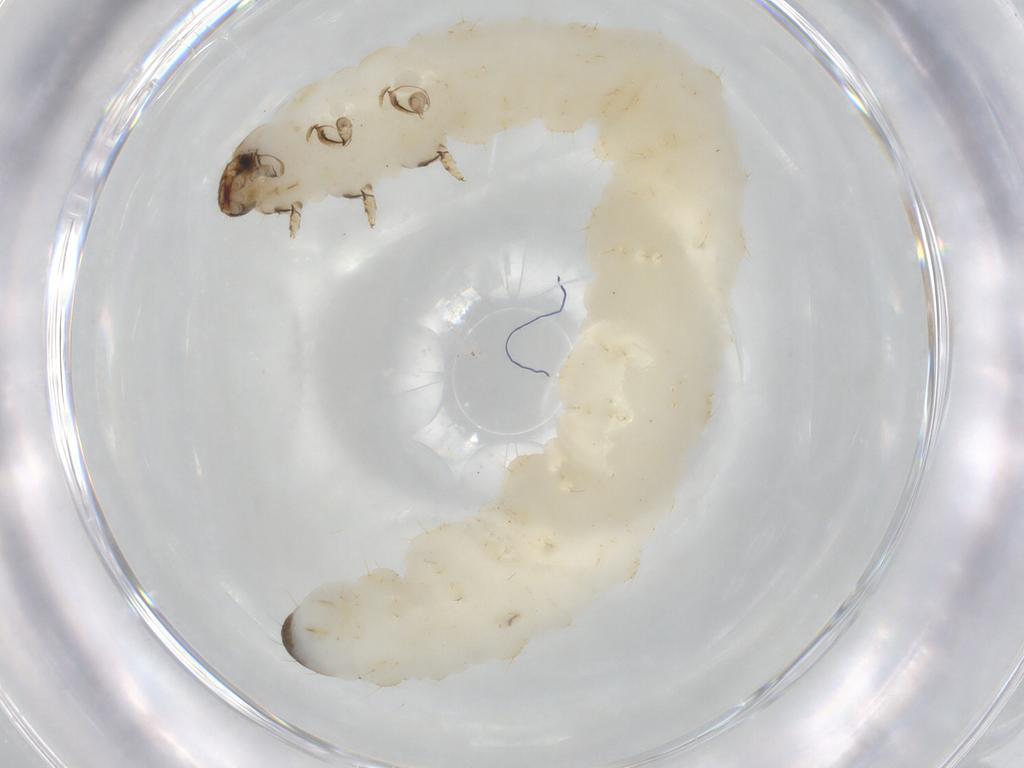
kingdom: Animalia
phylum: Arthropoda
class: Insecta
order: Coleoptera
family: Chrysomelidae
